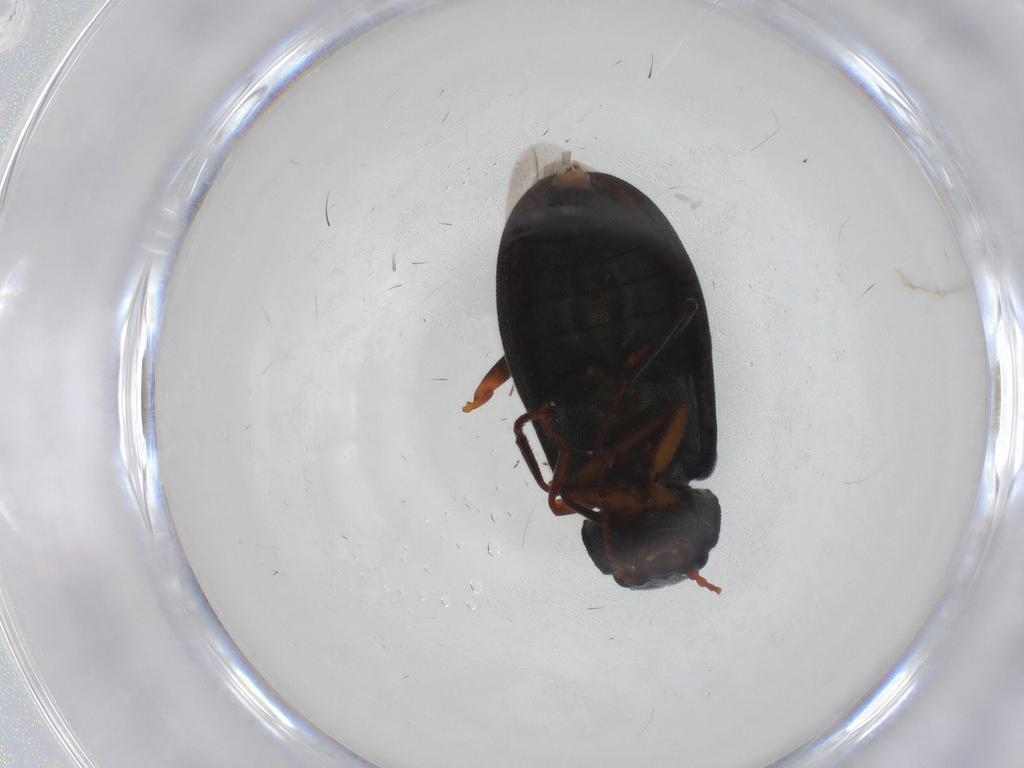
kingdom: Animalia
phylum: Arthropoda
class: Insecta
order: Coleoptera
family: Melyridae
